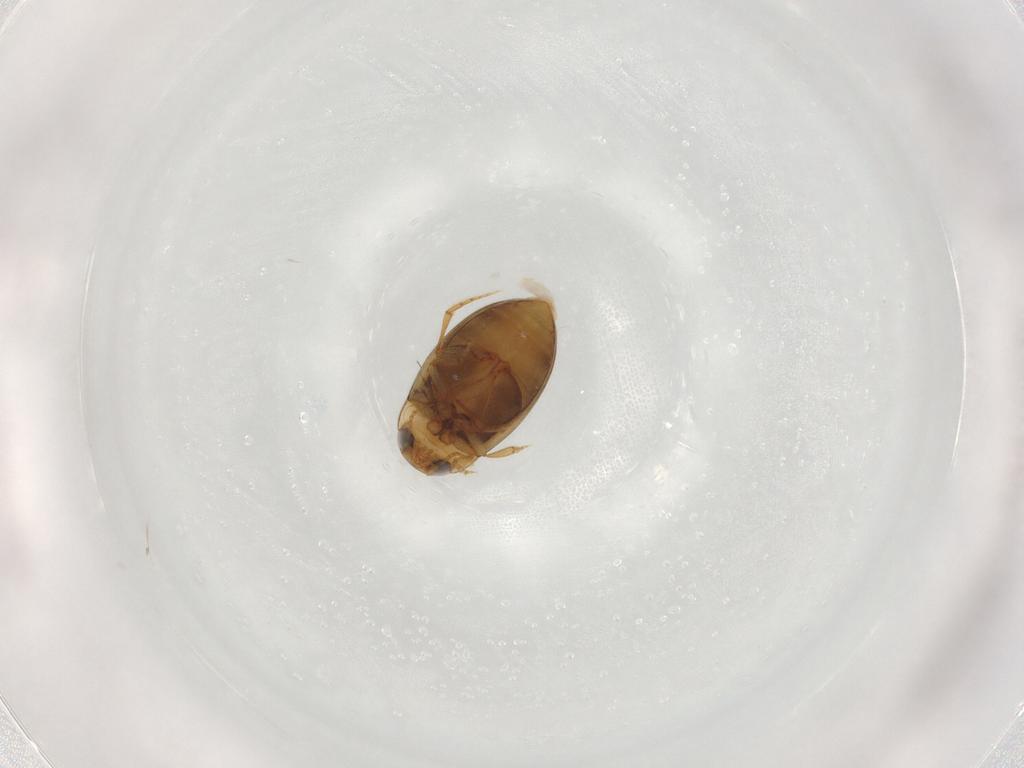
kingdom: Animalia
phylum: Arthropoda
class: Insecta
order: Coleoptera
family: Dytiscidae
